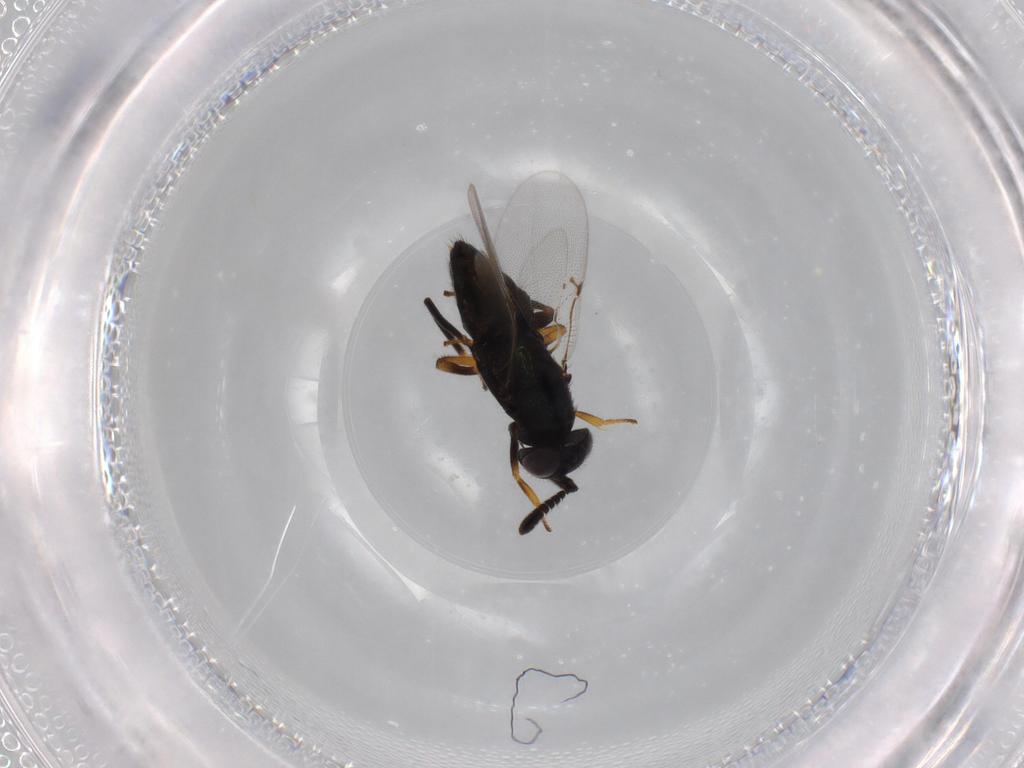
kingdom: Animalia
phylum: Arthropoda
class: Insecta
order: Hymenoptera
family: Encyrtidae
